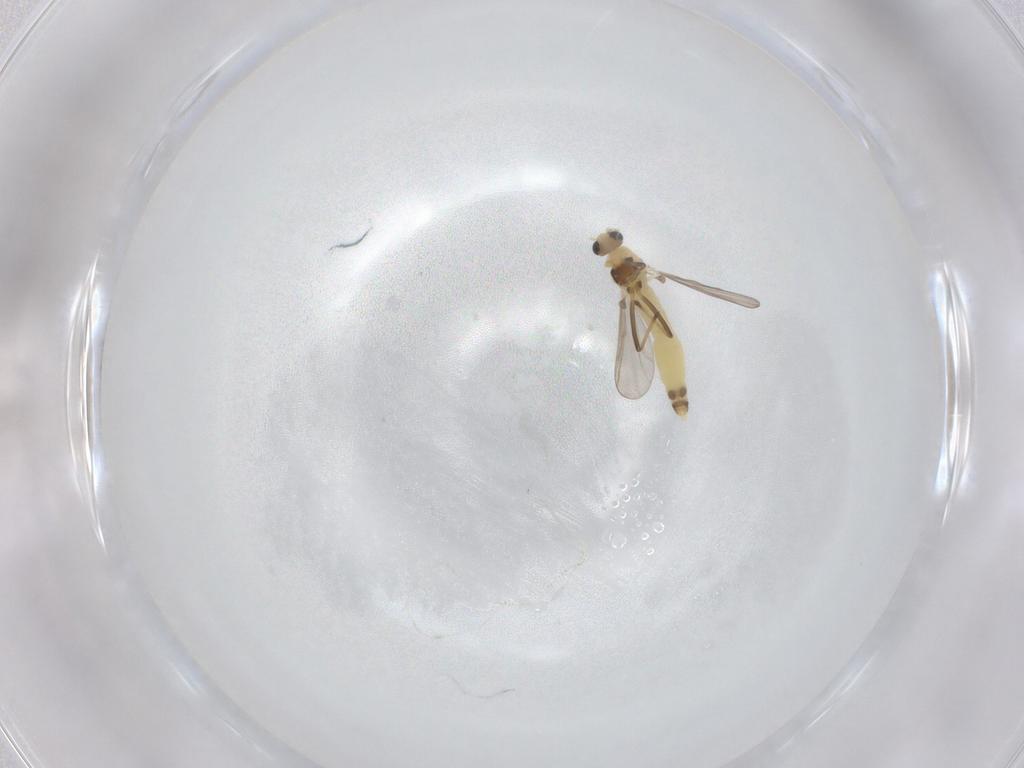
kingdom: Animalia
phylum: Arthropoda
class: Insecta
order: Diptera
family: Chironomidae
